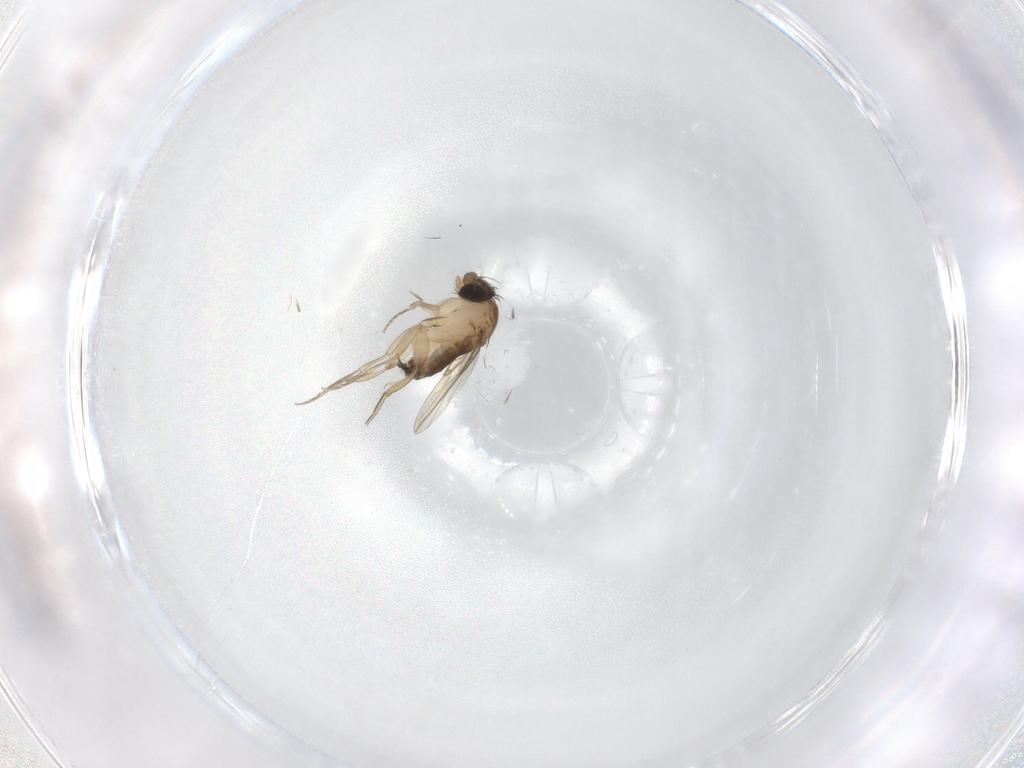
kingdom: Animalia
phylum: Arthropoda
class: Insecta
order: Diptera
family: Phoridae
